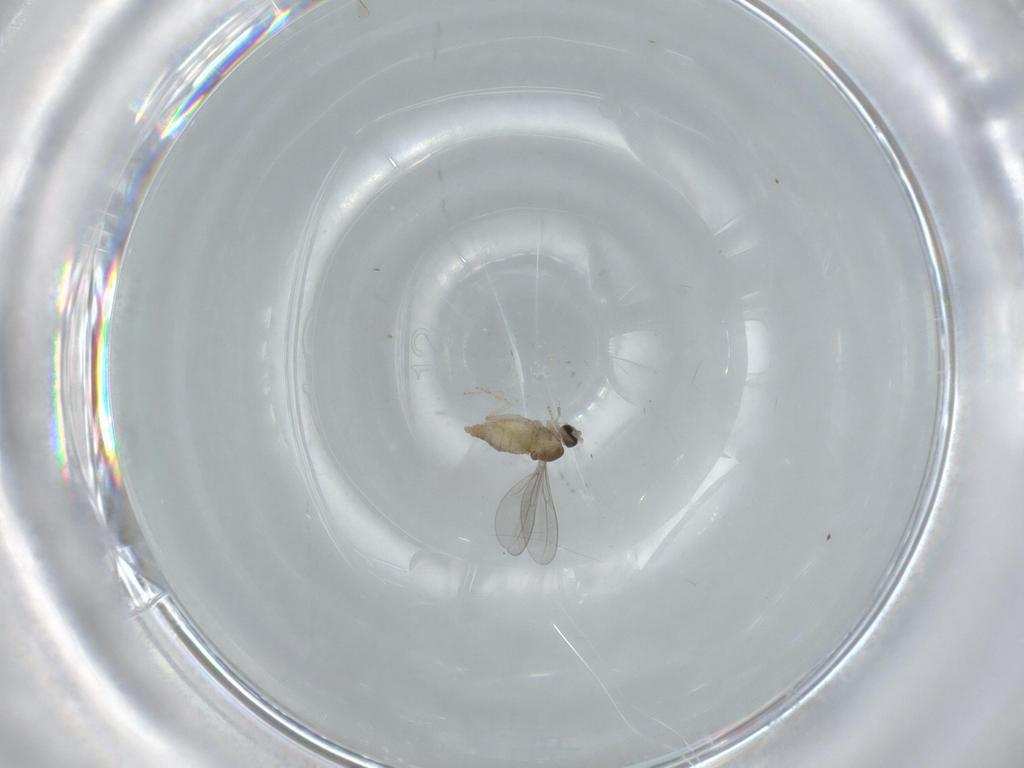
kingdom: Animalia
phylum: Arthropoda
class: Insecta
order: Diptera
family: Cecidomyiidae
